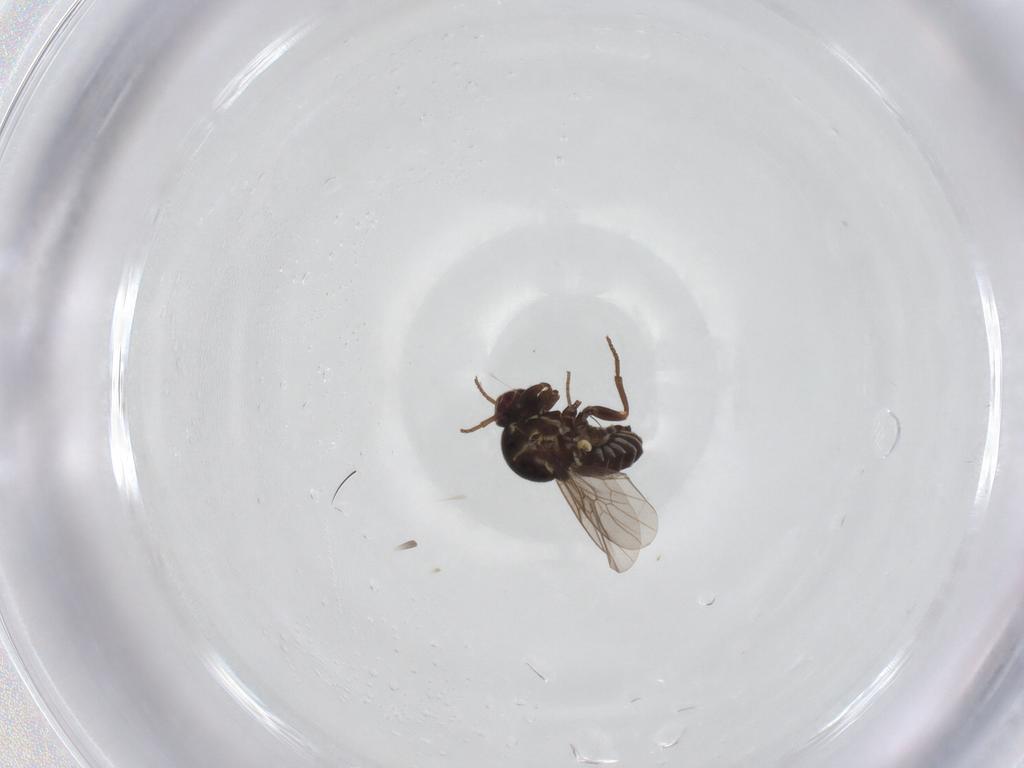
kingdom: Animalia
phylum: Arthropoda
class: Insecta
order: Diptera
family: Mythicomyiidae
